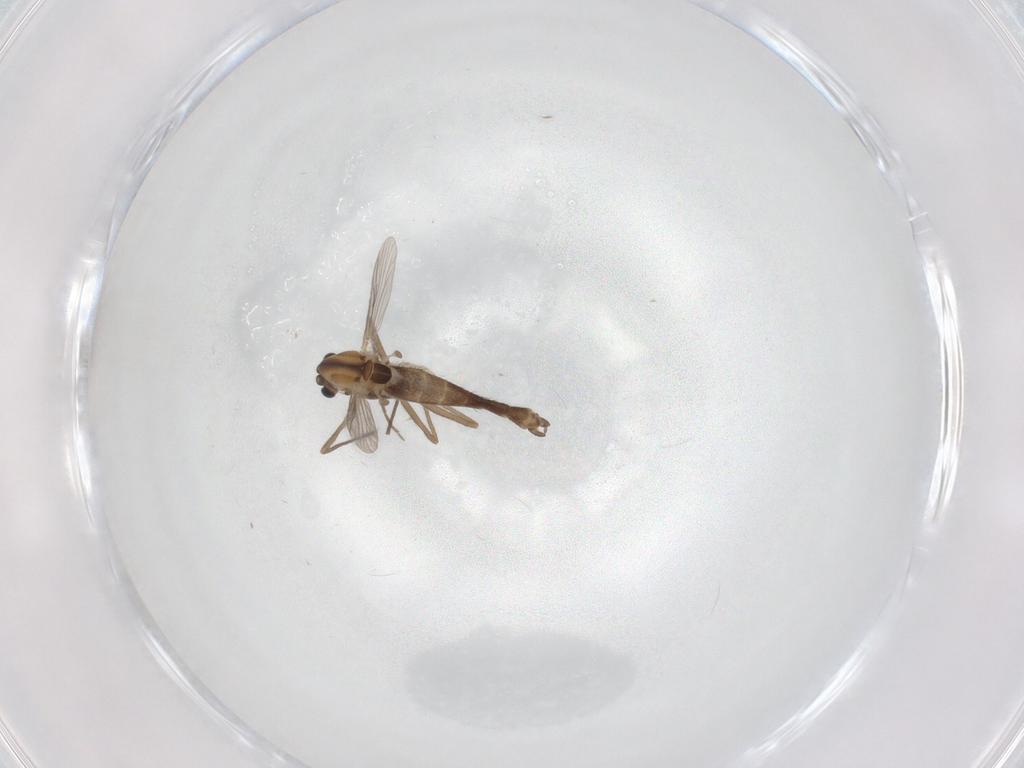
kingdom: Animalia
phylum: Arthropoda
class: Insecta
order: Diptera
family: Chironomidae
